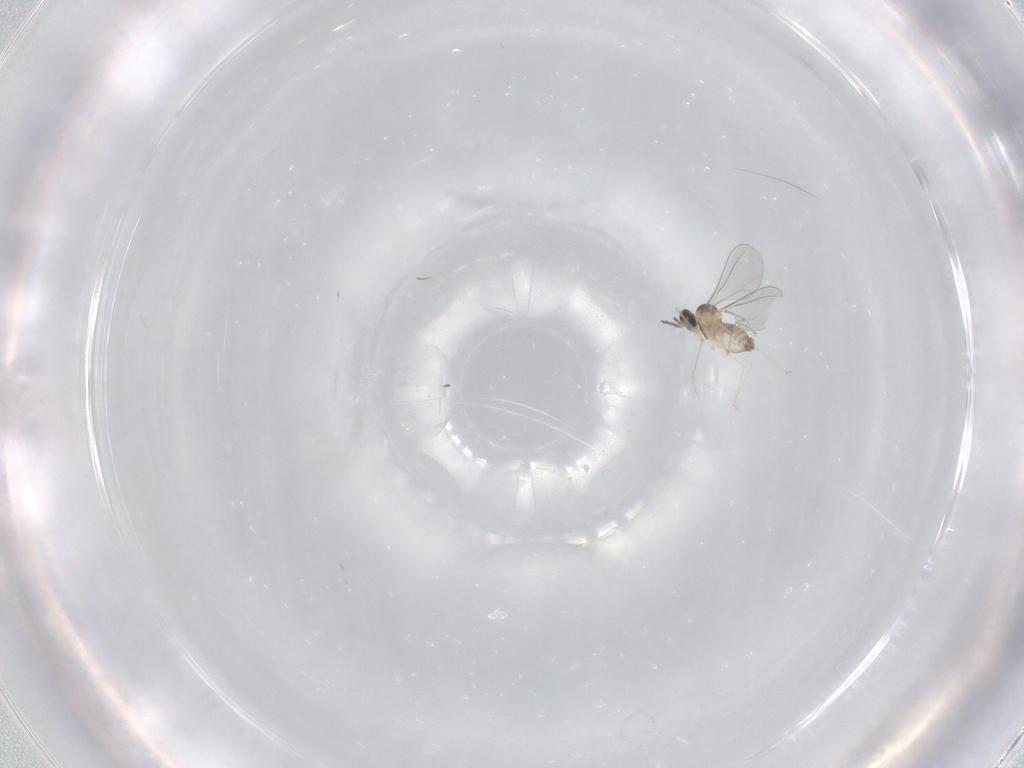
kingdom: Animalia
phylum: Arthropoda
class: Insecta
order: Diptera
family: Cecidomyiidae
